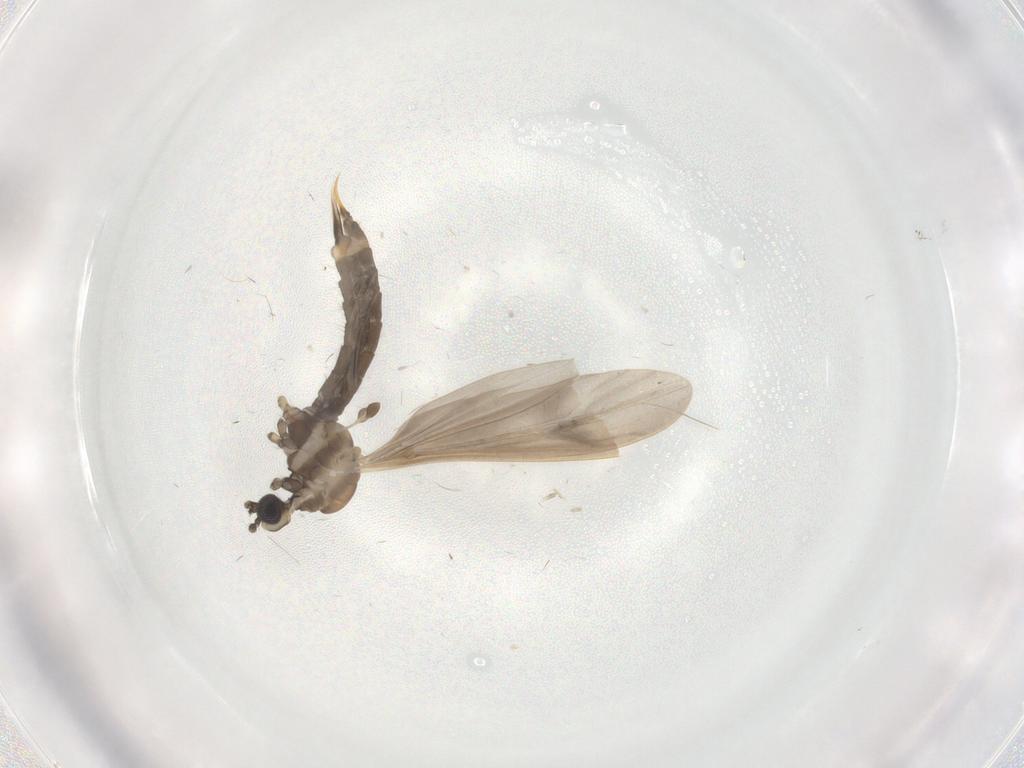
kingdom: Animalia
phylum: Arthropoda
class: Insecta
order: Diptera
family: Limoniidae
